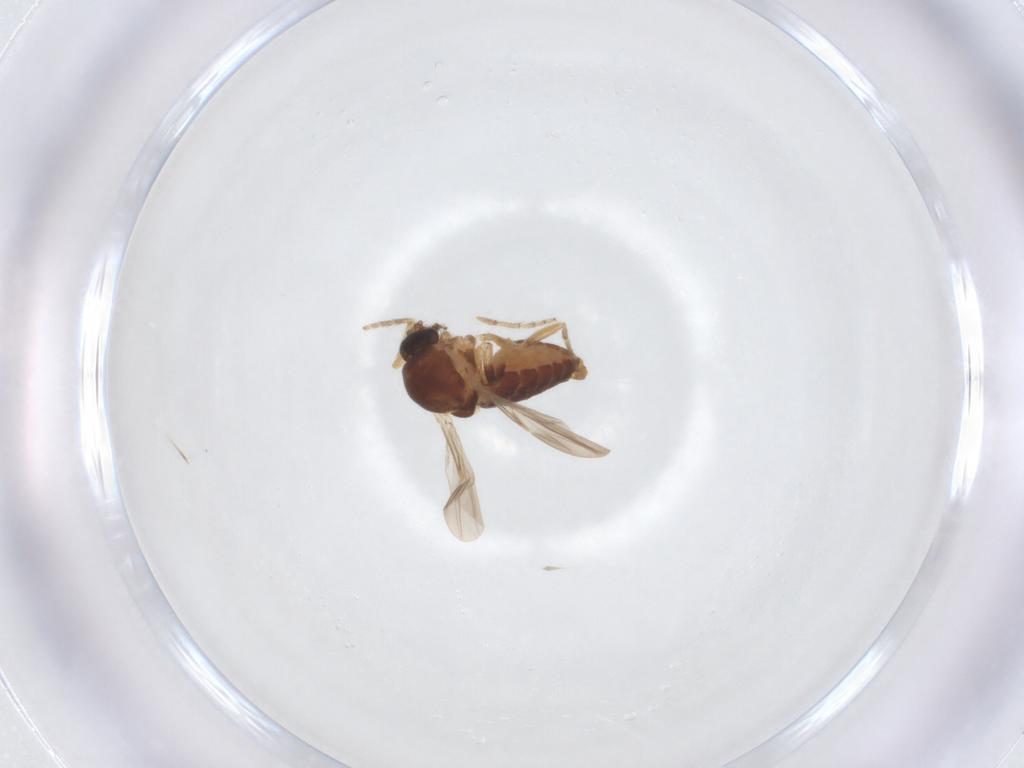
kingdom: Animalia
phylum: Arthropoda
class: Insecta
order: Diptera
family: Ceratopogonidae
